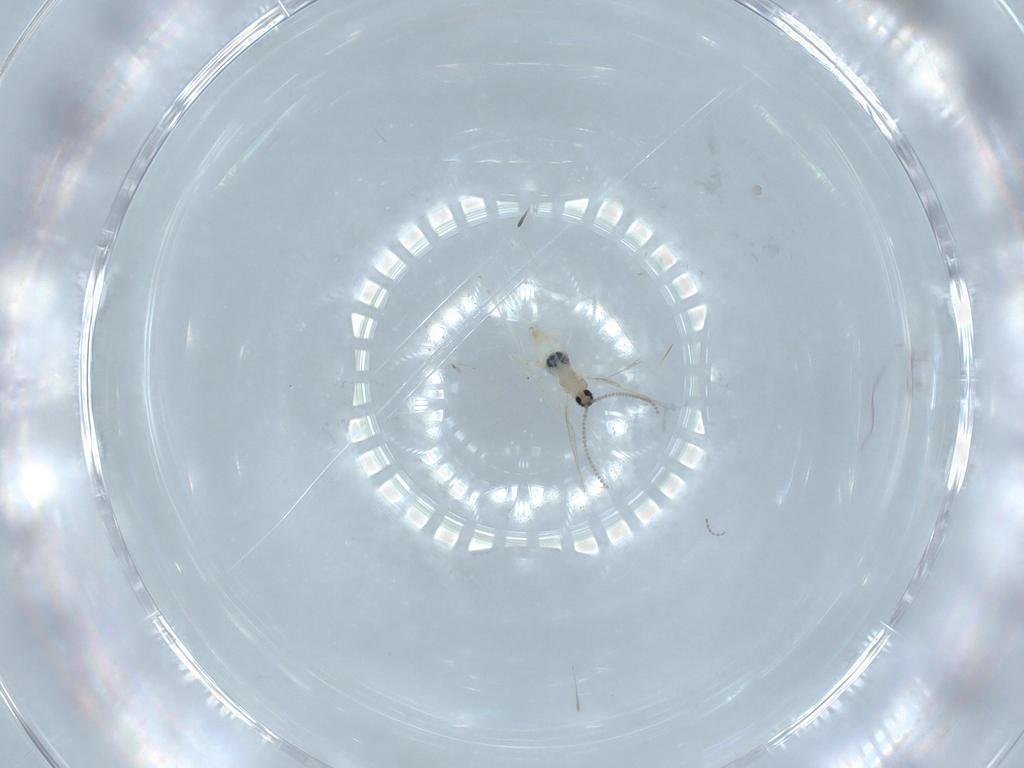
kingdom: Animalia
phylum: Arthropoda
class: Insecta
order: Diptera
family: Cecidomyiidae
